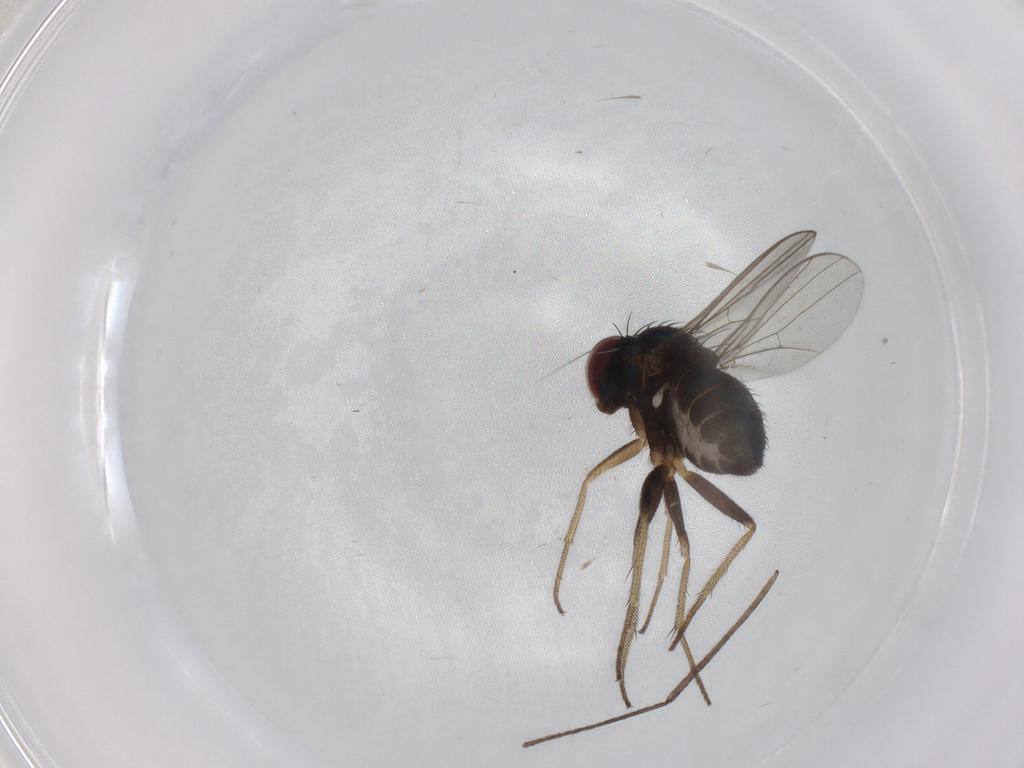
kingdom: Animalia
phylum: Arthropoda
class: Insecta
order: Diptera
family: Limoniidae
